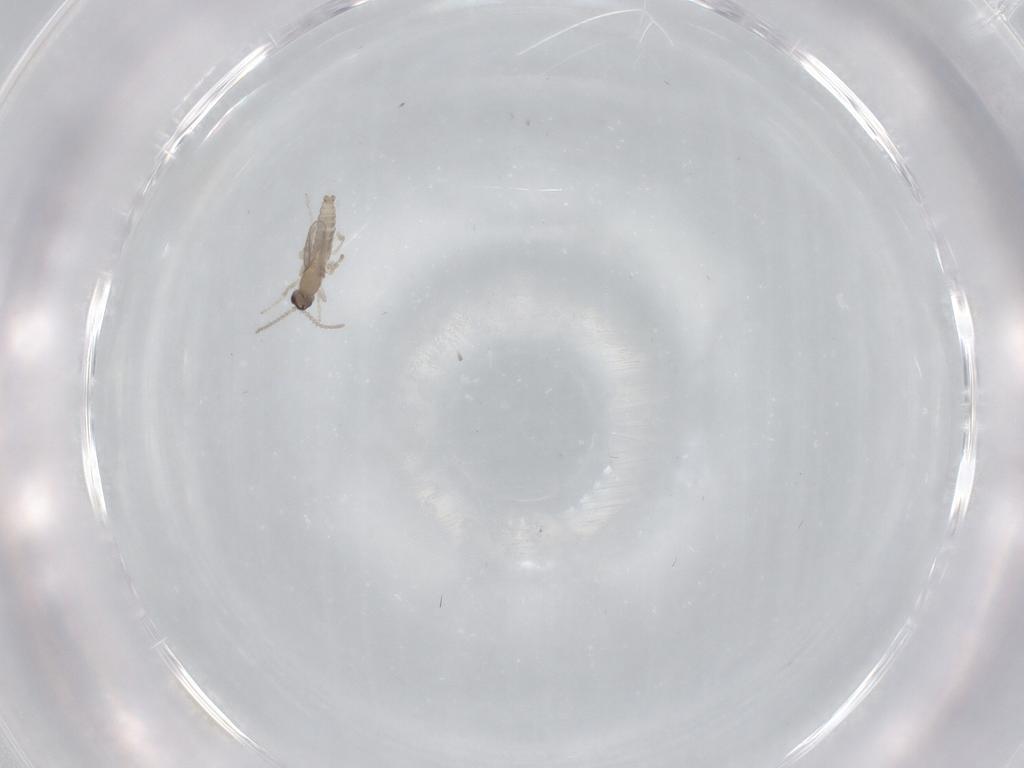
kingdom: Animalia
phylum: Arthropoda
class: Insecta
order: Diptera
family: Cecidomyiidae
